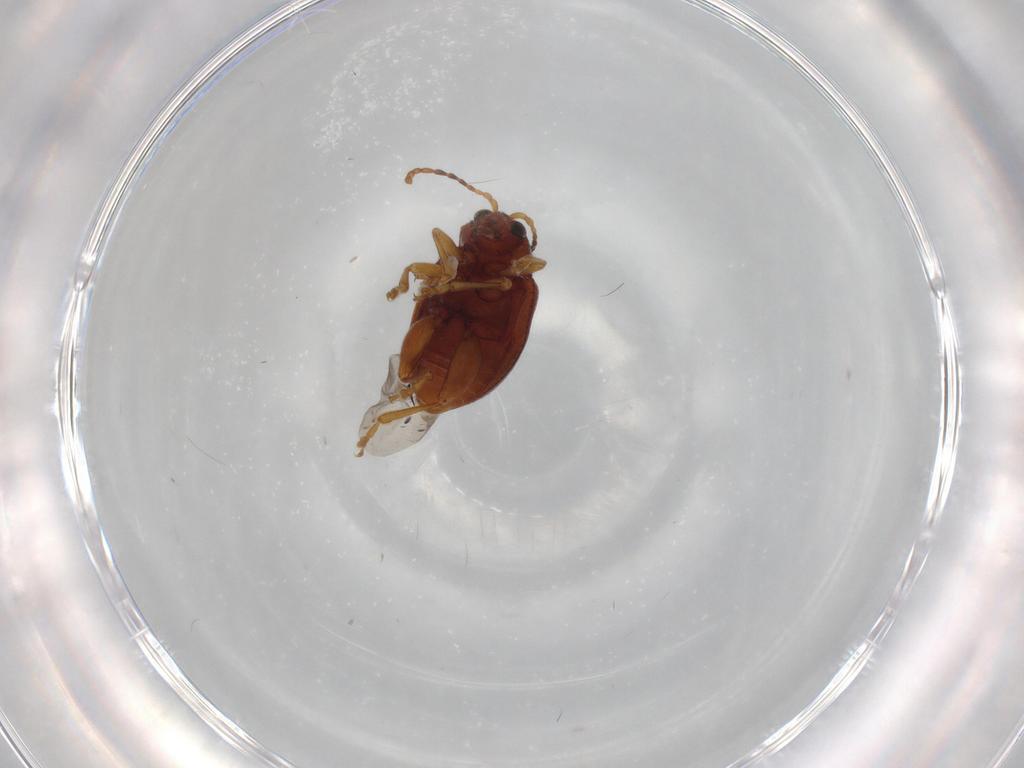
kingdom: Animalia
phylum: Arthropoda
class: Insecta
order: Coleoptera
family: Chrysomelidae
